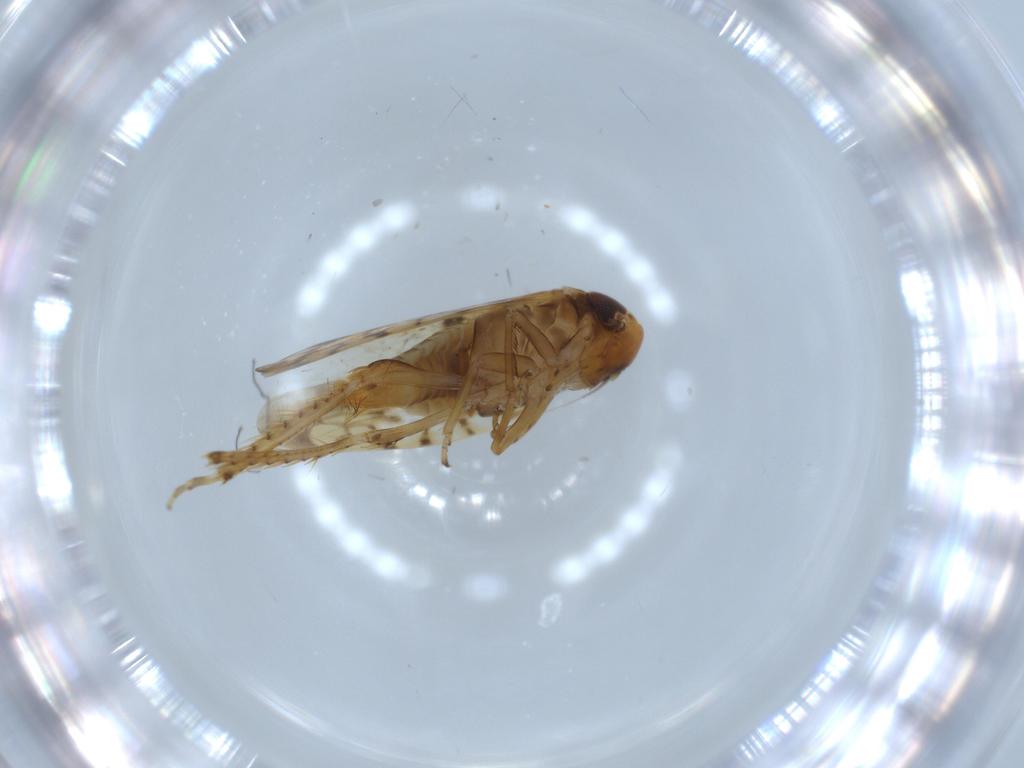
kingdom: Animalia
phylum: Arthropoda
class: Insecta
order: Hemiptera
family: Cicadellidae
